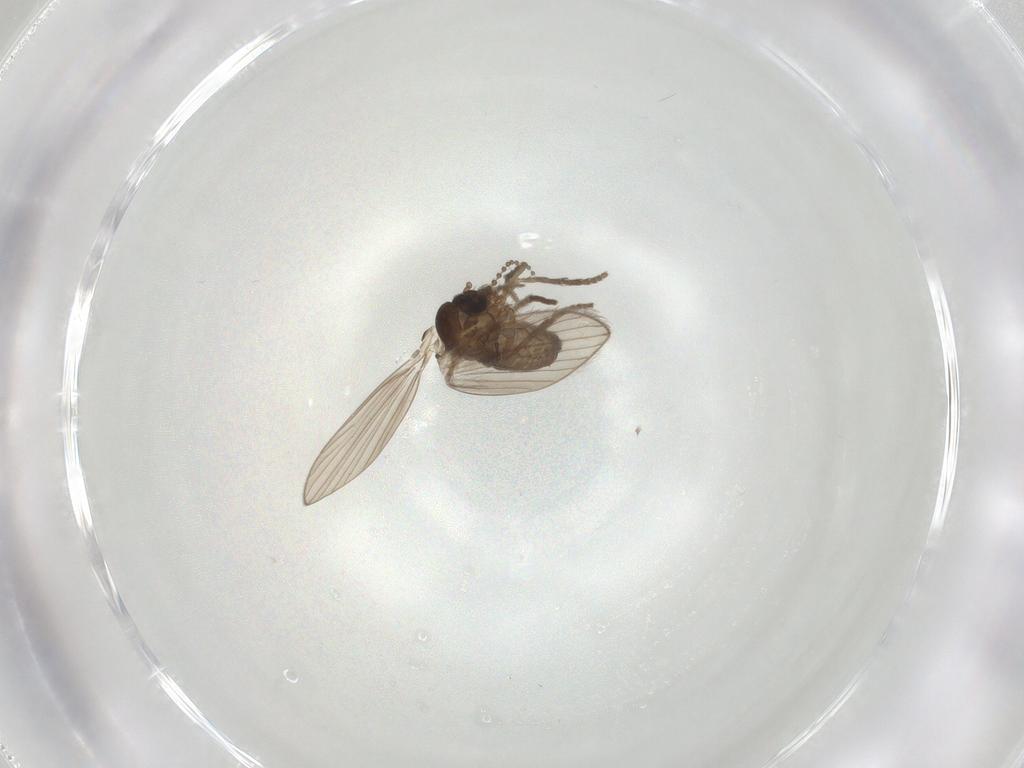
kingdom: Animalia
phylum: Arthropoda
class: Insecta
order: Diptera
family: Psychodidae
